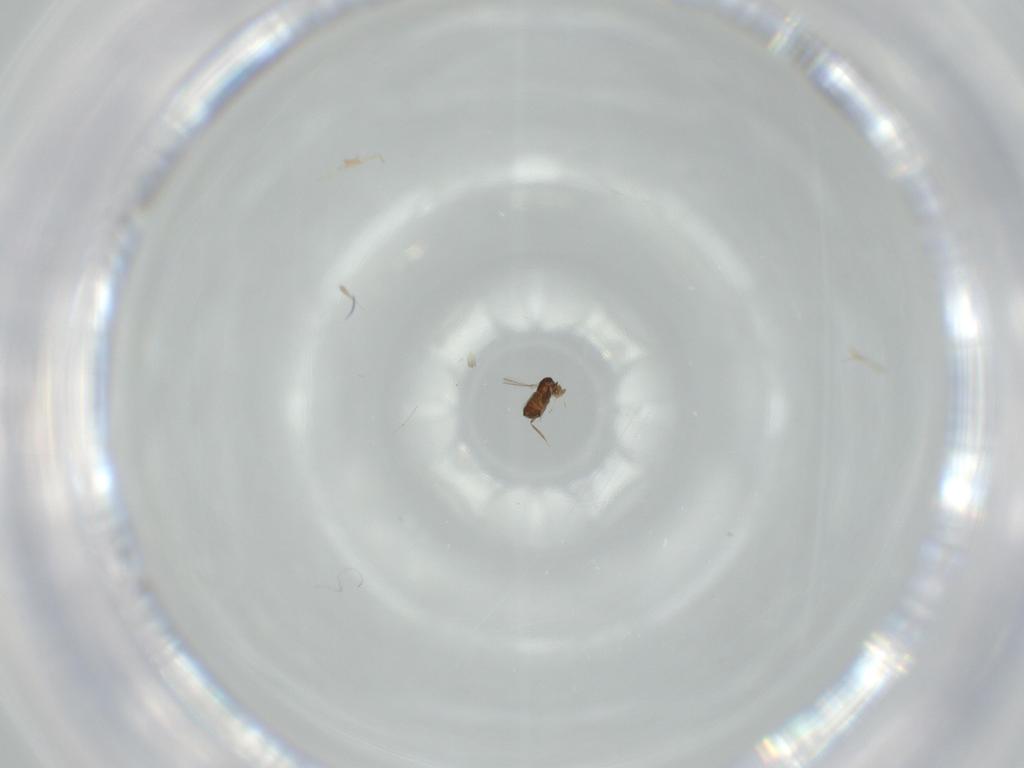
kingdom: Animalia
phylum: Arthropoda
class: Insecta
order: Hymenoptera
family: Mymaridae
